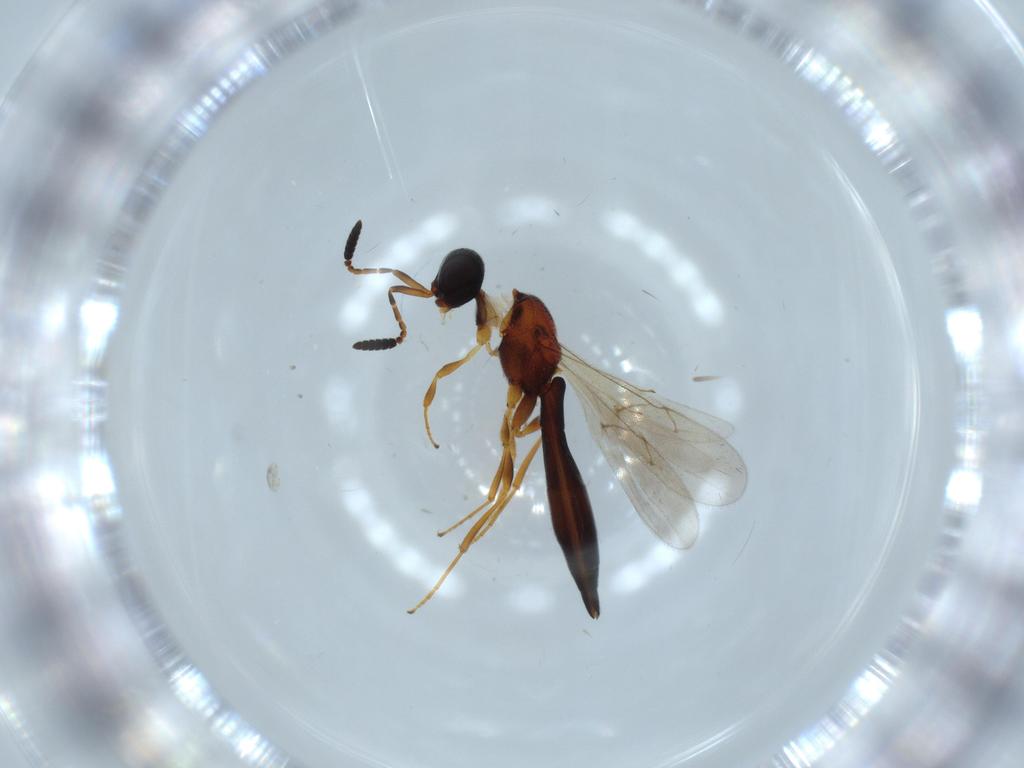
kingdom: Animalia
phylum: Arthropoda
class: Insecta
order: Hymenoptera
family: Scelionidae
